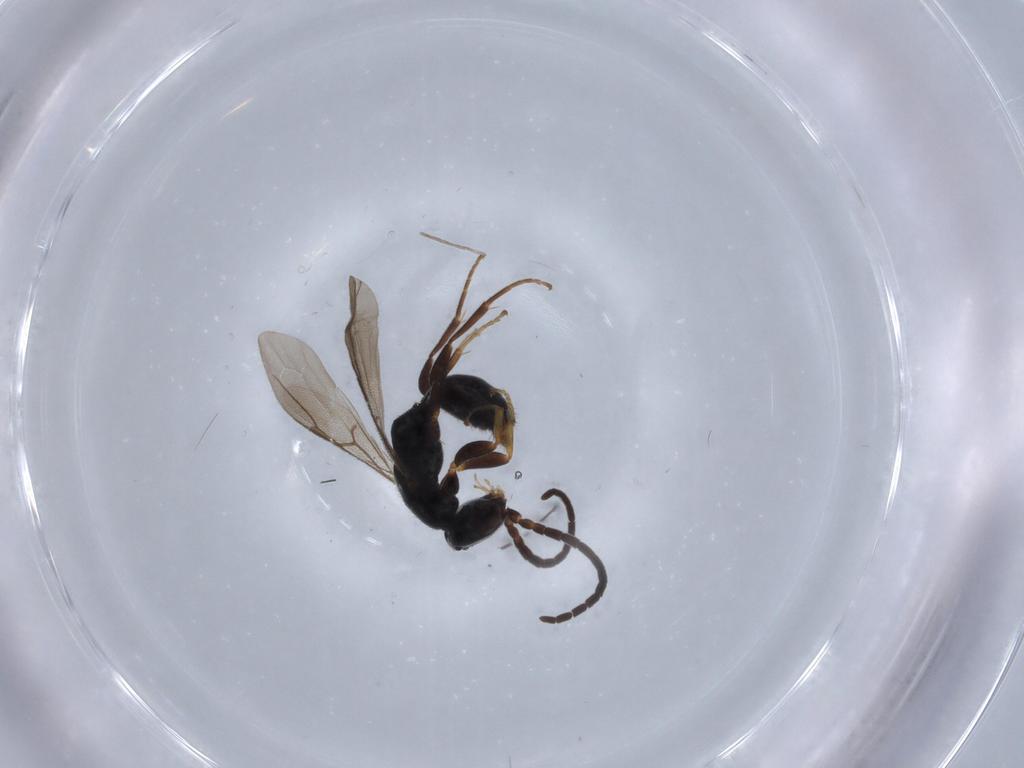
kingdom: Animalia
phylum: Arthropoda
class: Insecta
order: Hymenoptera
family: Bethylidae
